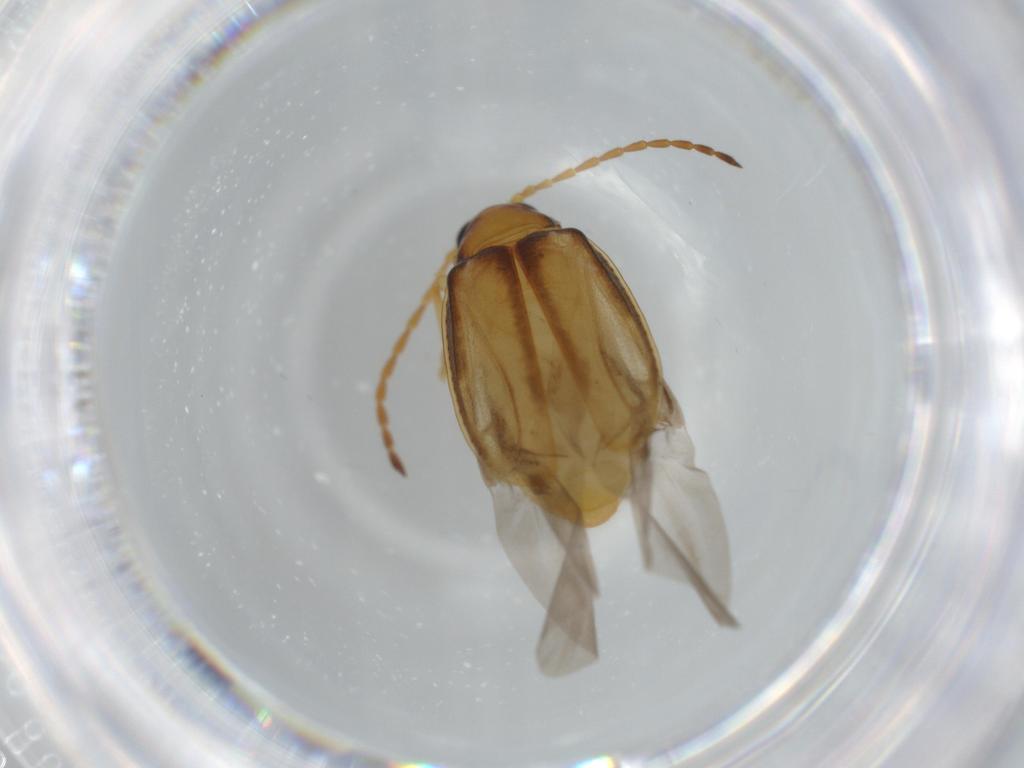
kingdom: Animalia
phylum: Arthropoda
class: Insecta
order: Coleoptera
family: Chrysomelidae
